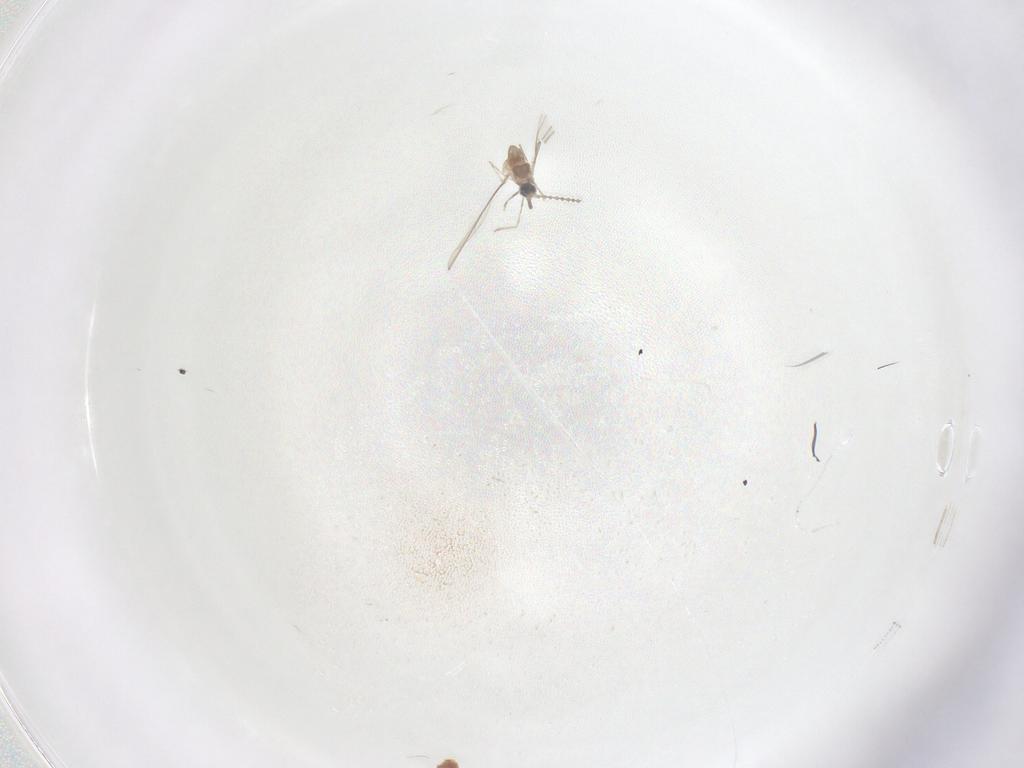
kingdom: Animalia
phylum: Arthropoda
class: Insecta
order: Diptera
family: Cecidomyiidae
